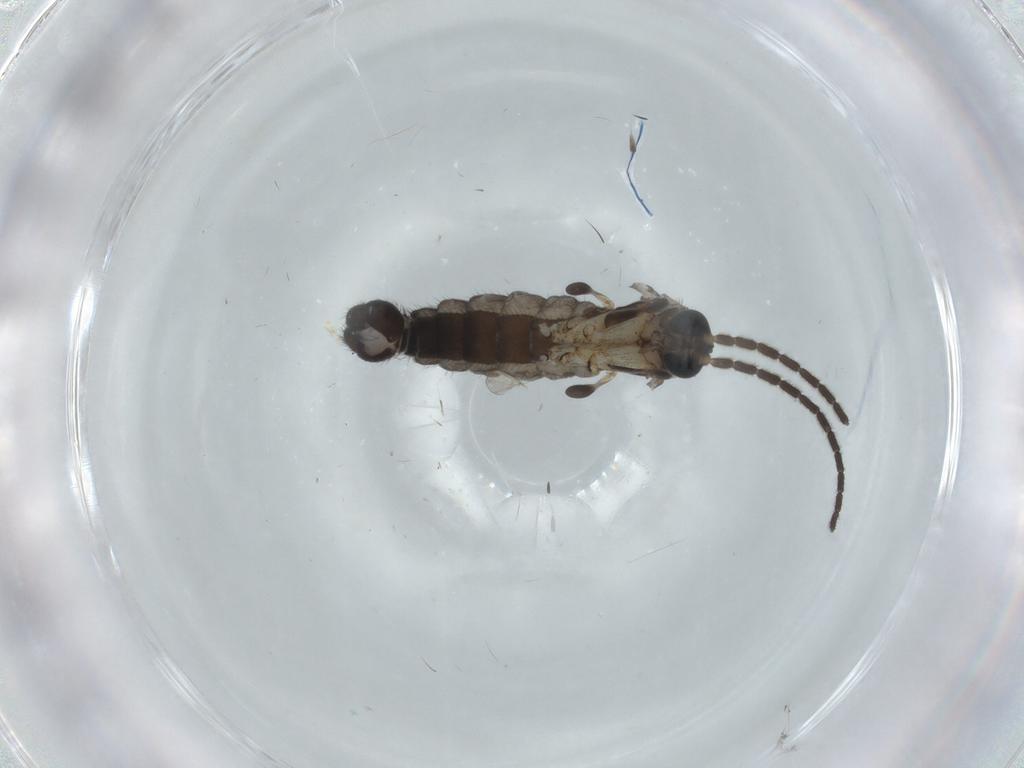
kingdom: Animalia
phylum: Arthropoda
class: Insecta
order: Diptera
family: Sciaridae
